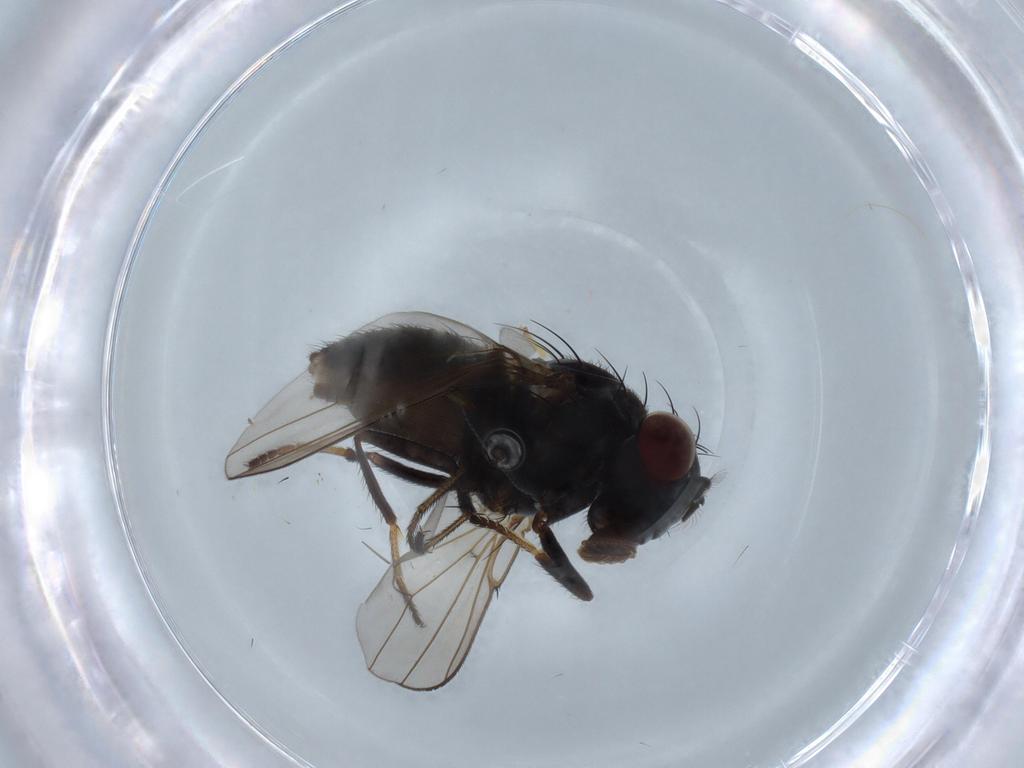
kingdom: Animalia
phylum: Arthropoda
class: Insecta
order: Diptera
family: Ephydridae
